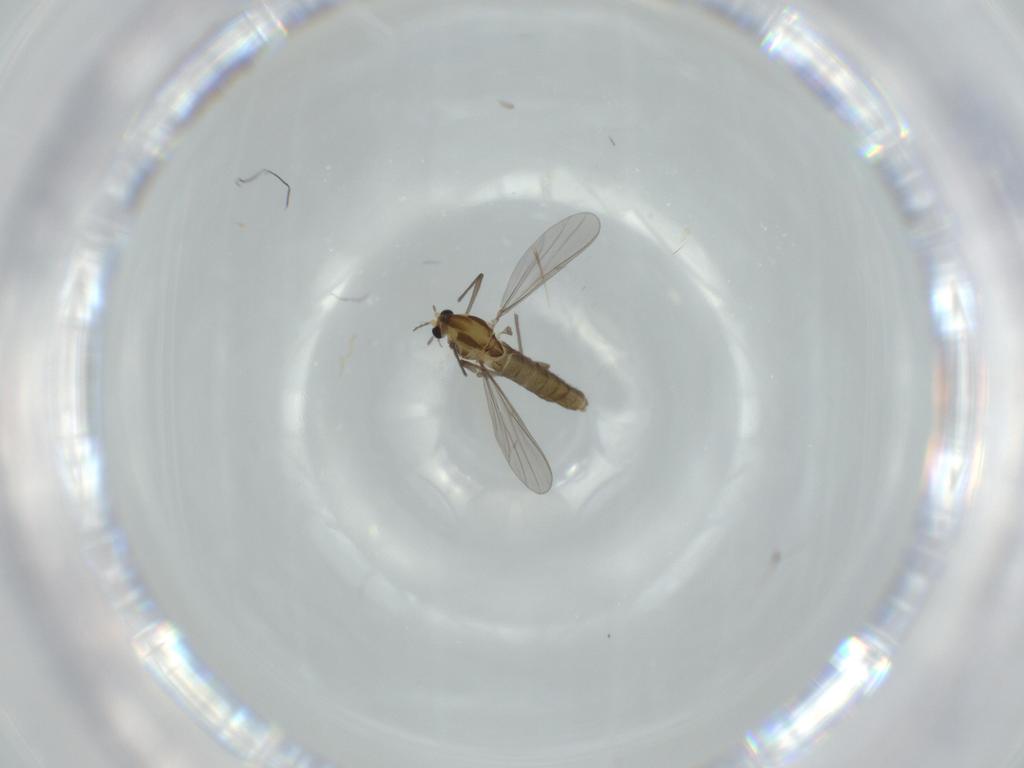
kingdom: Animalia
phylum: Arthropoda
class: Insecta
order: Diptera
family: Chironomidae
